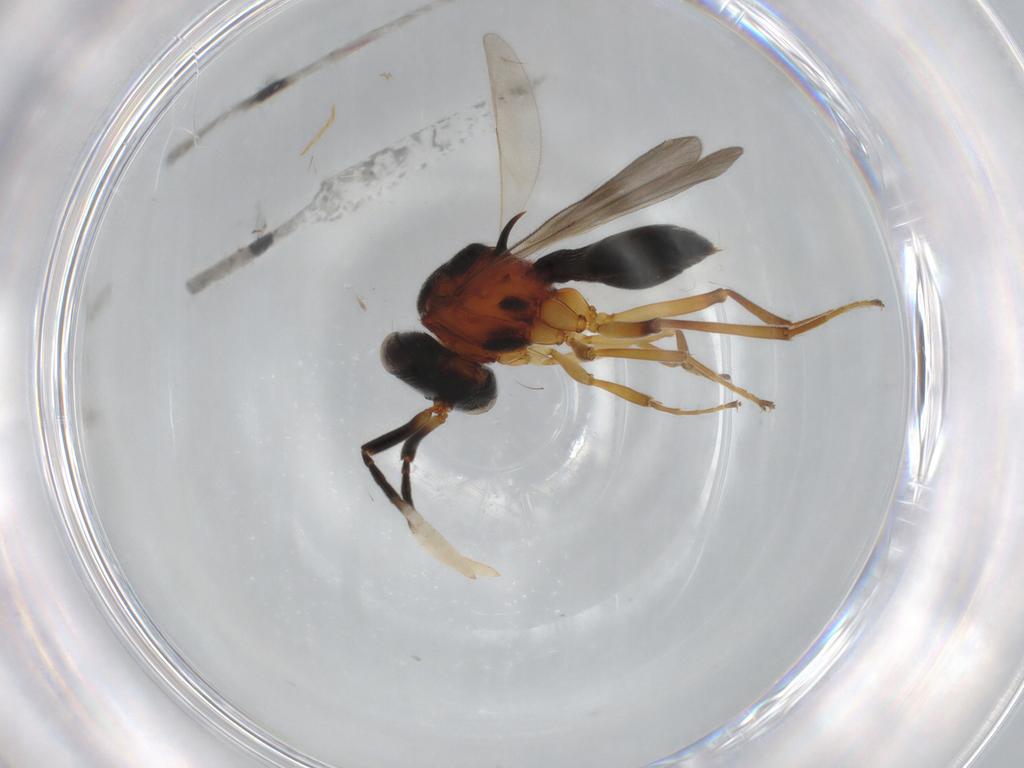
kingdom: Animalia
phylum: Arthropoda
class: Insecta
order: Hymenoptera
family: Scelionidae
